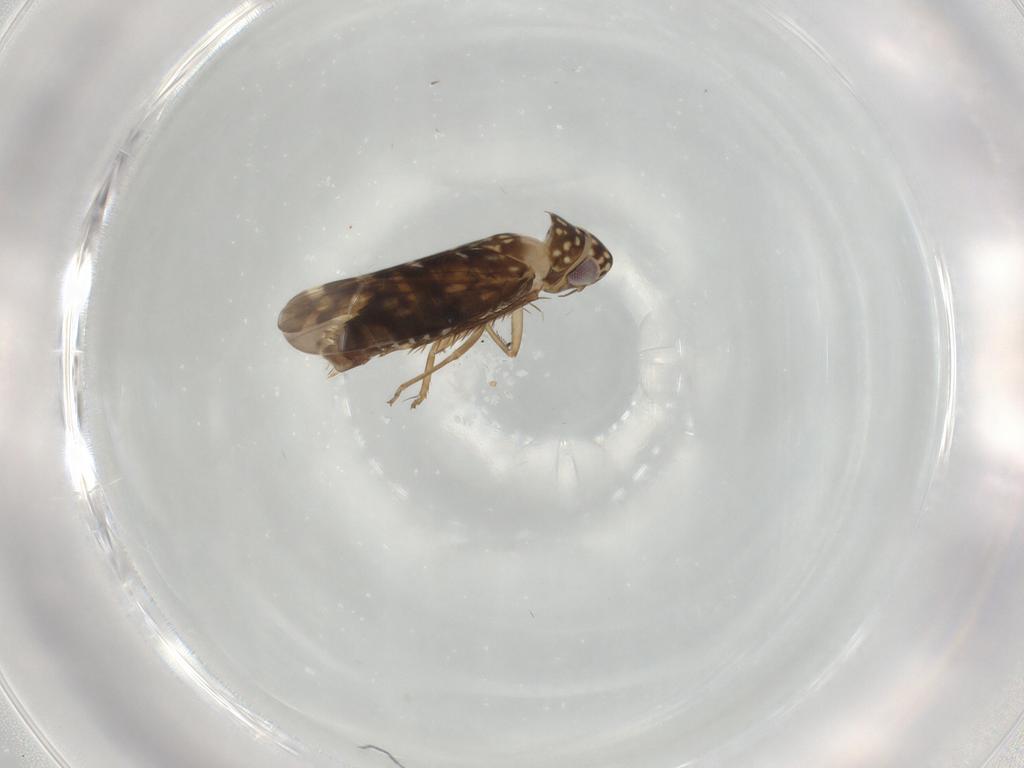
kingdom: Animalia
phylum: Arthropoda
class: Insecta
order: Hemiptera
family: Cicadellidae
